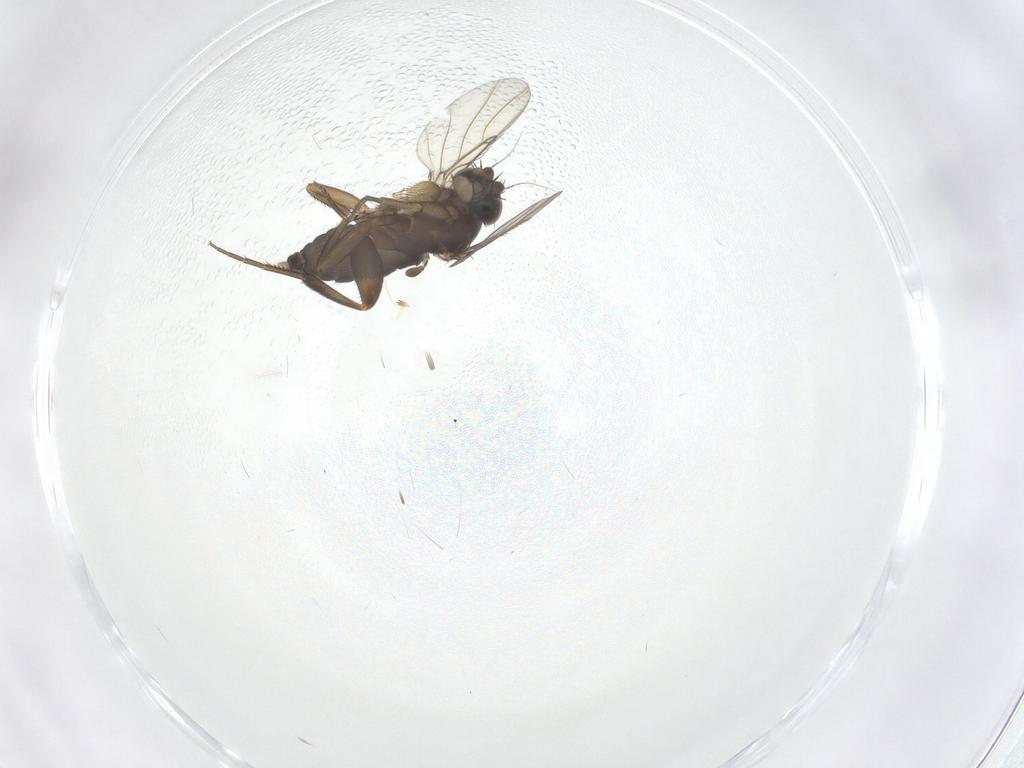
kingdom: Animalia
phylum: Arthropoda
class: Insecta
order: Diptera
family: Phoridae
